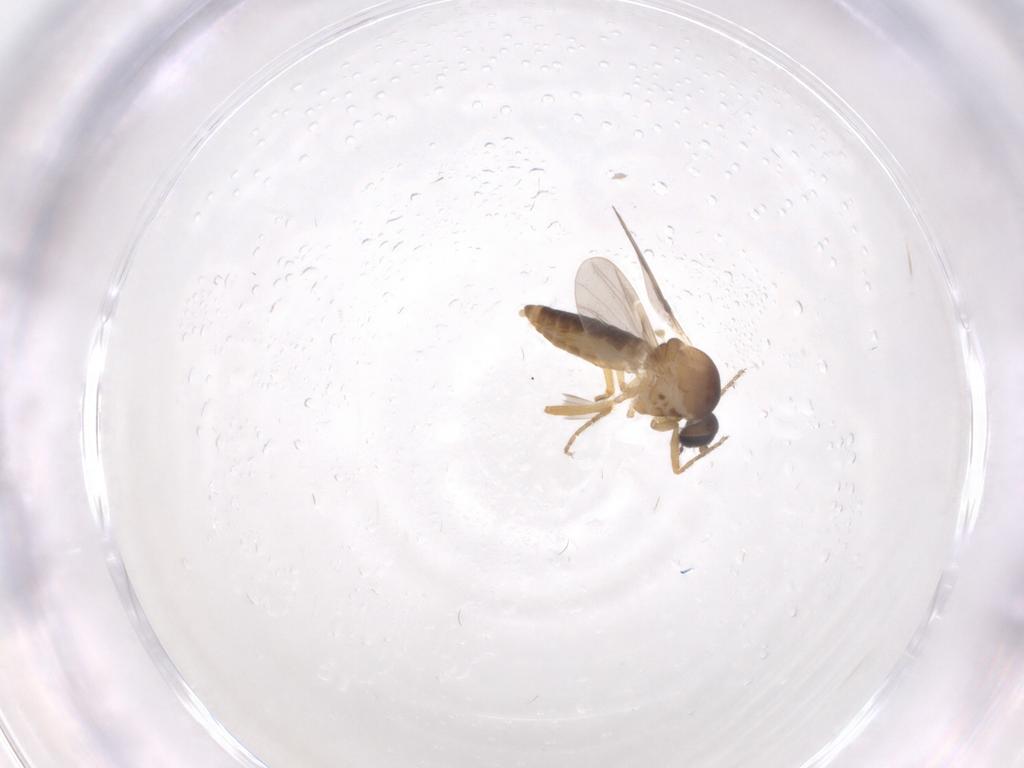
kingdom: Animalia
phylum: Arthropoda
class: Insecta
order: Diptera
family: Ceratopogonidae
